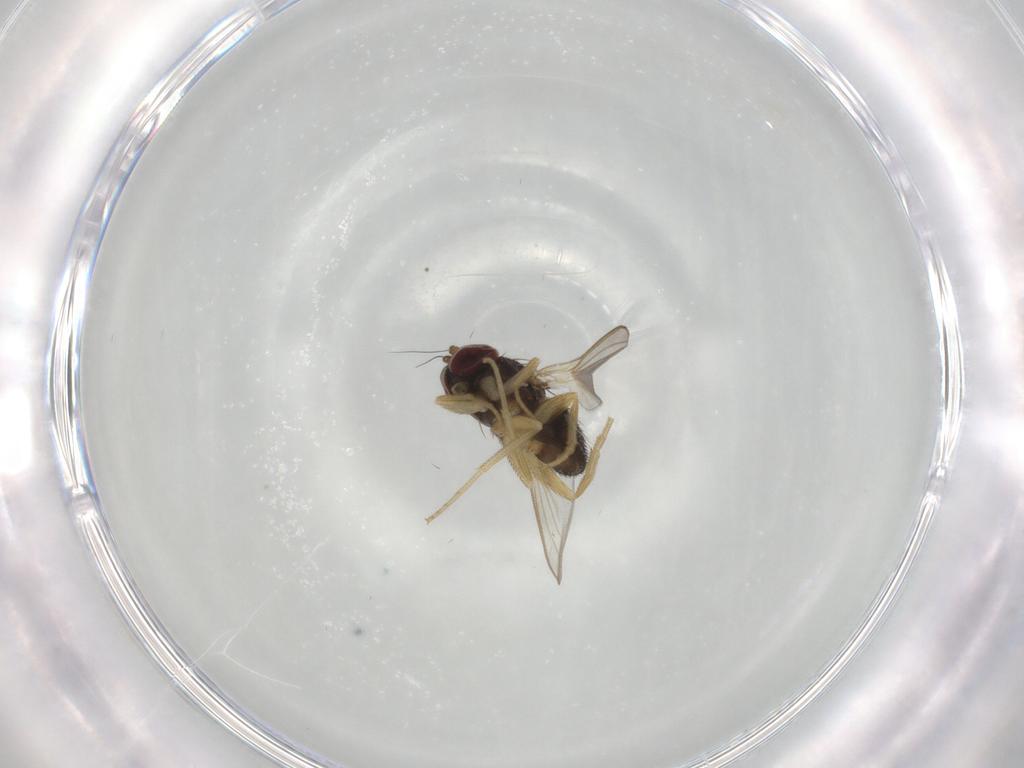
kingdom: Animalia
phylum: Arthropoda
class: Insecta
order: Diptera
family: Dolichopodidae
